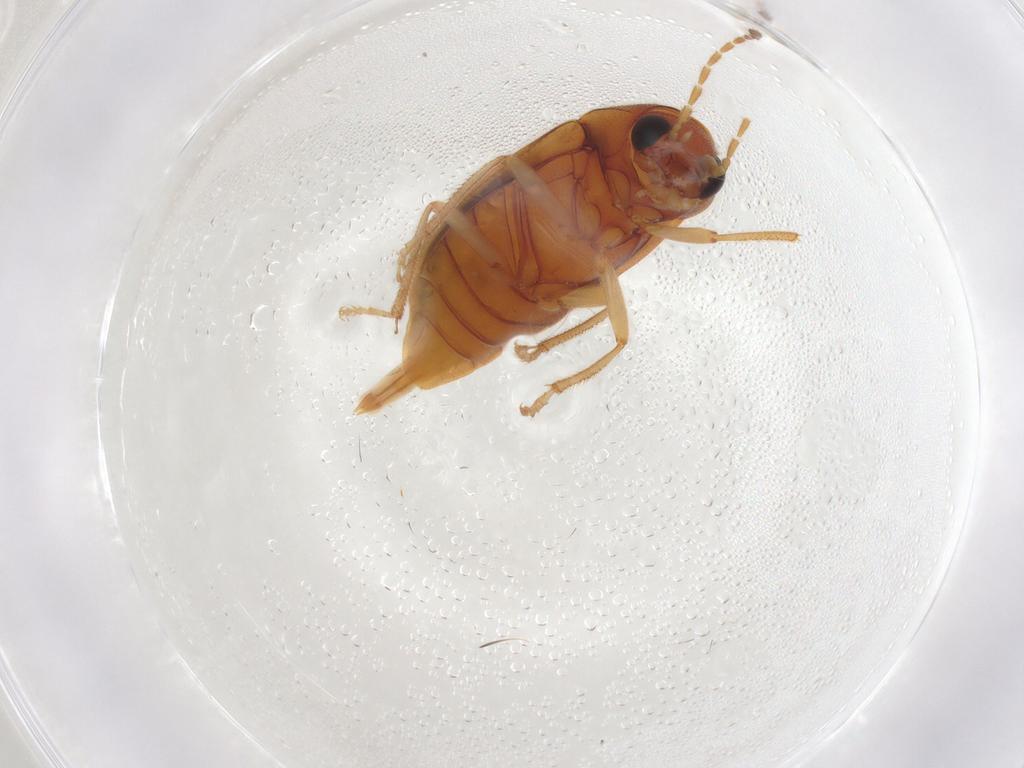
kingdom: Animalia
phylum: Arthropoda
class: Insecta
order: Coleoptera
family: Ptilodactylidae
